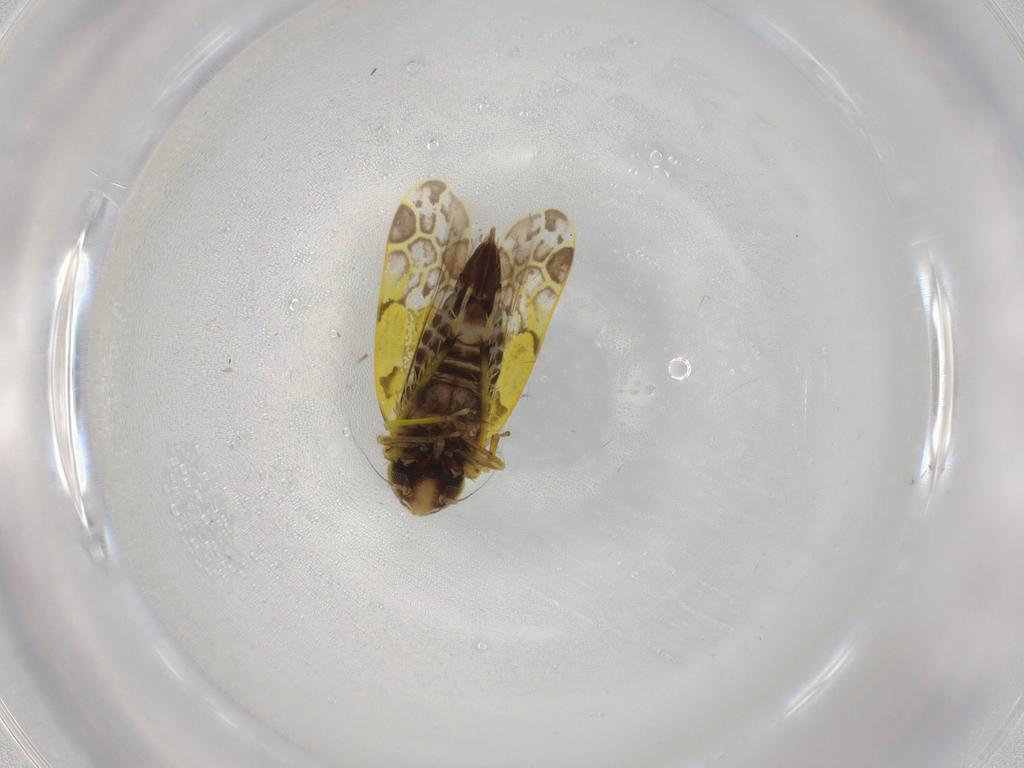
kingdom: Animalia
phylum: Arthropoda
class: Insecta
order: Hemiptera
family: Cicadellidae
